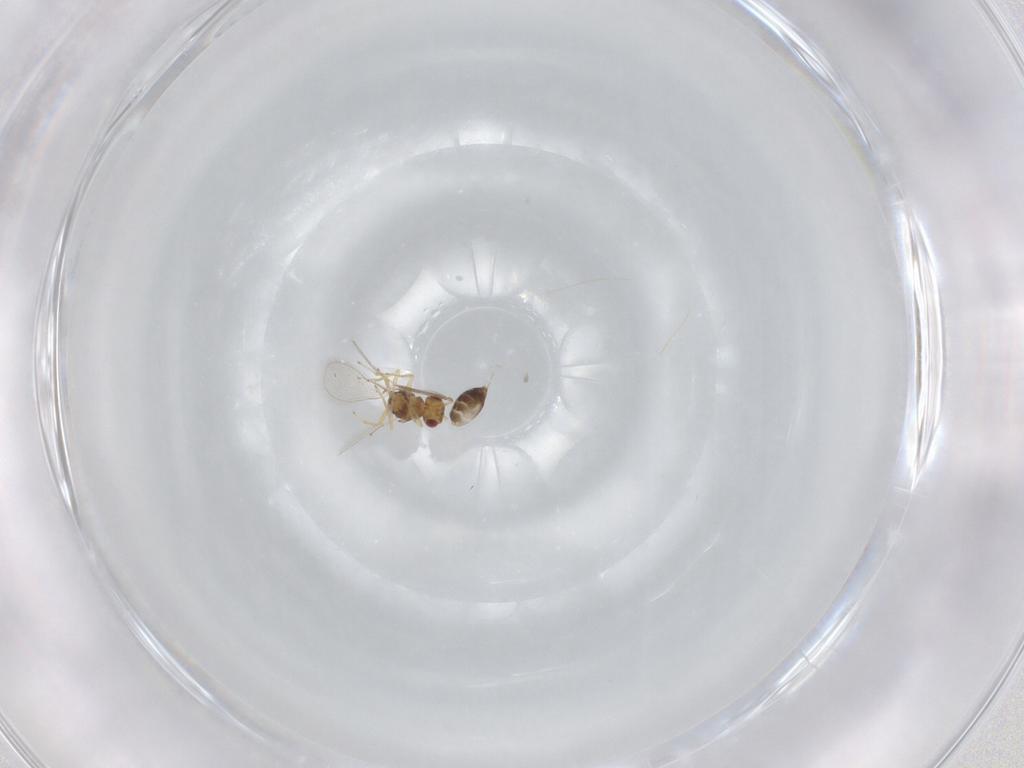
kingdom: Animalia
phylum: Arthropoda
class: Insecta
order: Hymenoptera
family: Eulophidae
